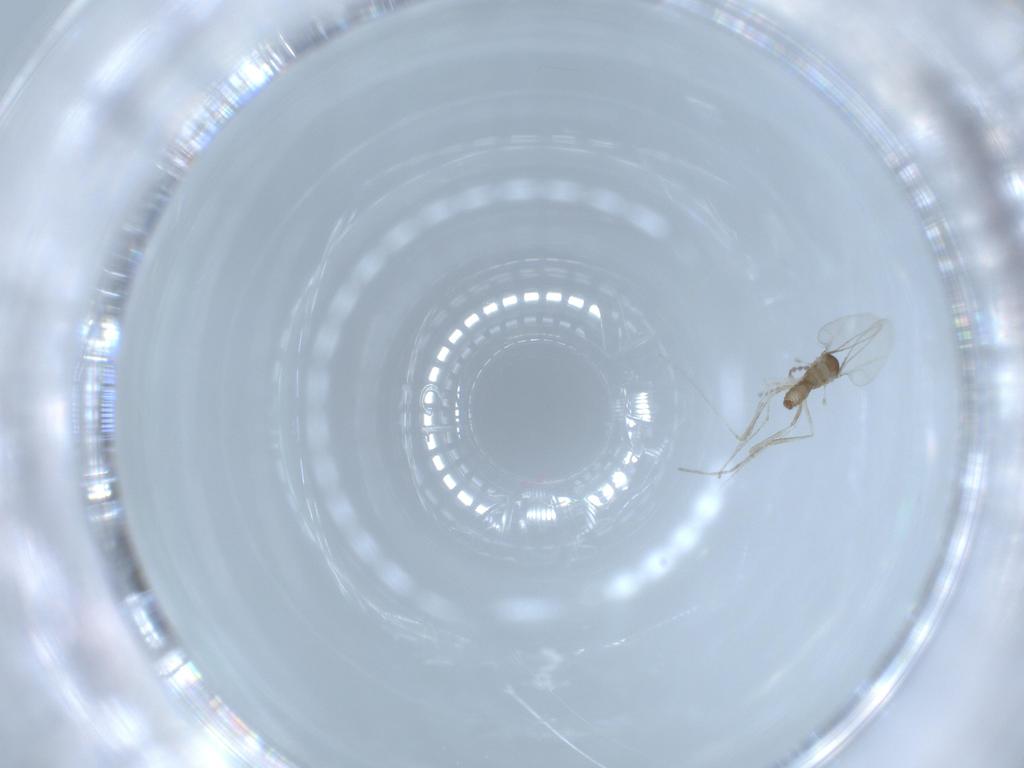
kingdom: Animalia
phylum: Arthropoda
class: Insecta
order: Diptera
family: Cecidomyiidae
